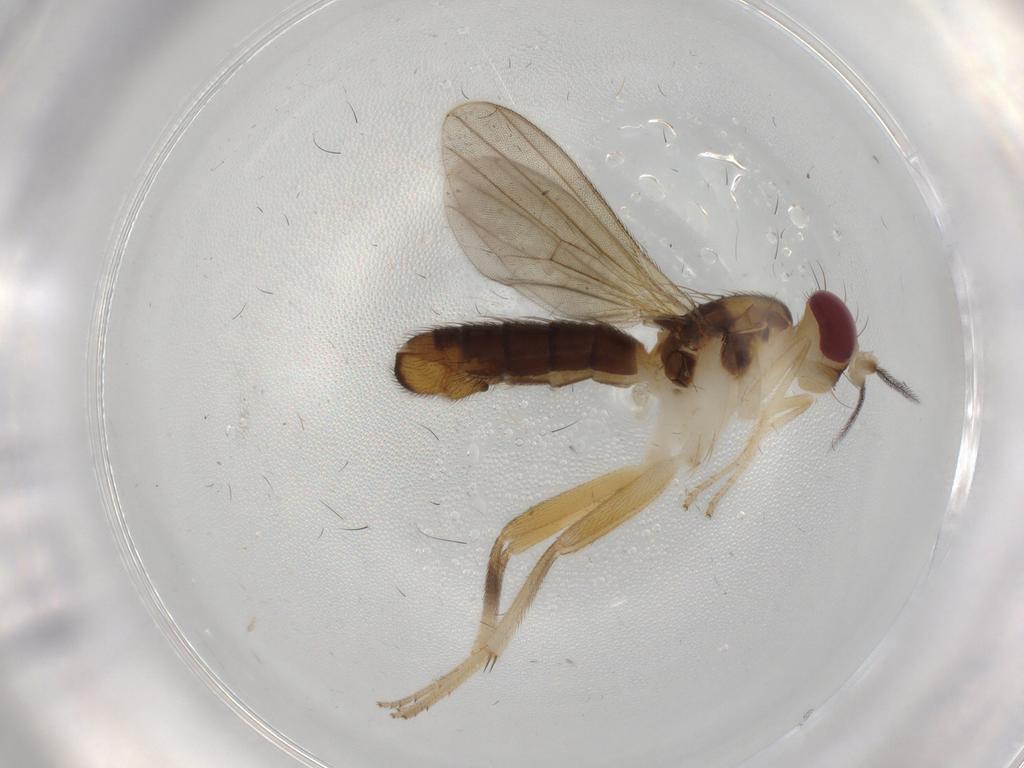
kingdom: Animalia
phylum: Arthropoda
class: Insecta
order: Diptera
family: Clusiidae
